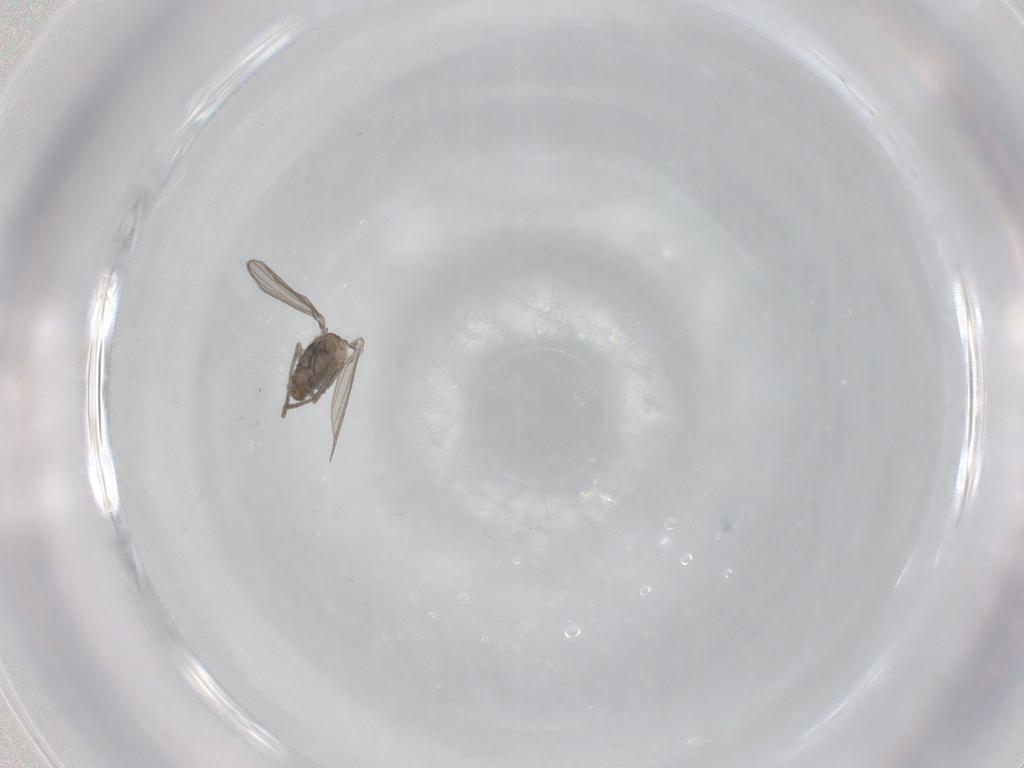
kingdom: Animalia
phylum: Arthropoda
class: Insecta
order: Diptera
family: Psychodidae
